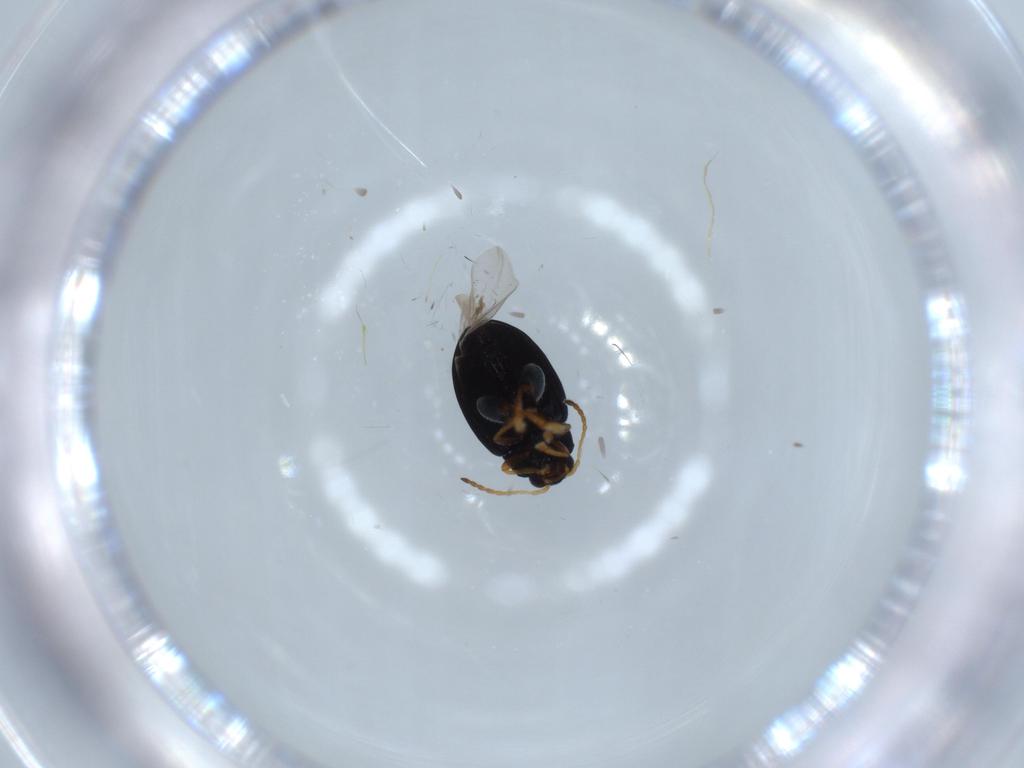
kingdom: Animalia
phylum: Arthropoda
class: Insecta
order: Coleoptera
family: Chrysomelidae
